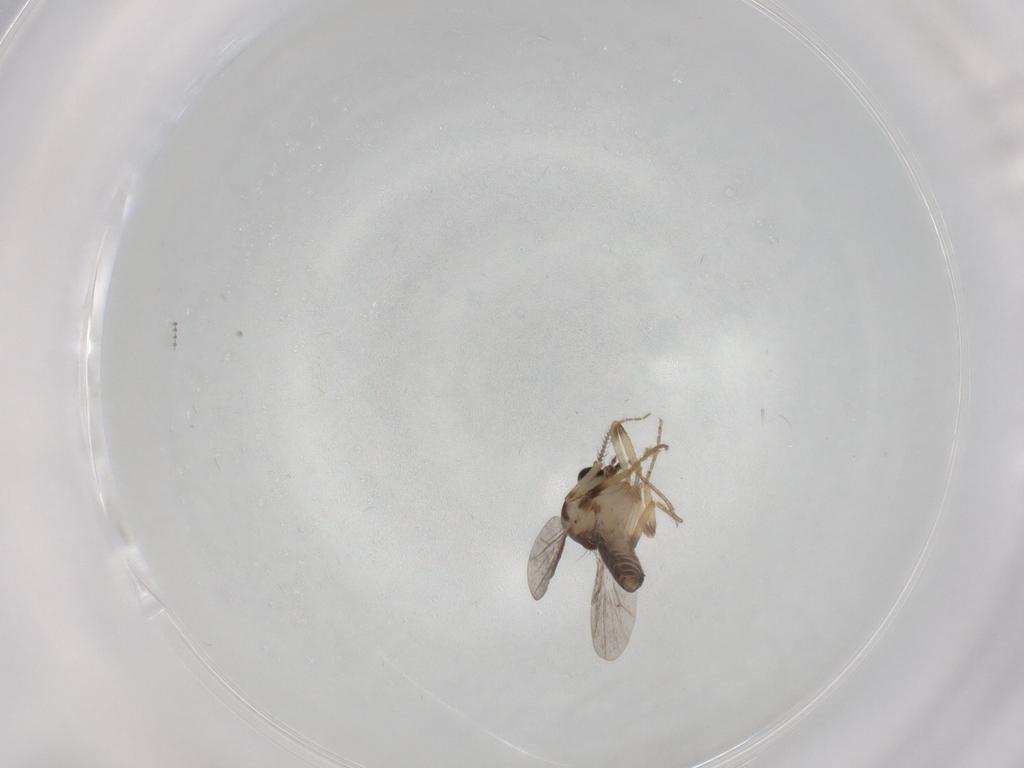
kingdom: Animalia
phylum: Arthropoda
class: Insecta
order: Diptera
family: Ceratopogonidae
